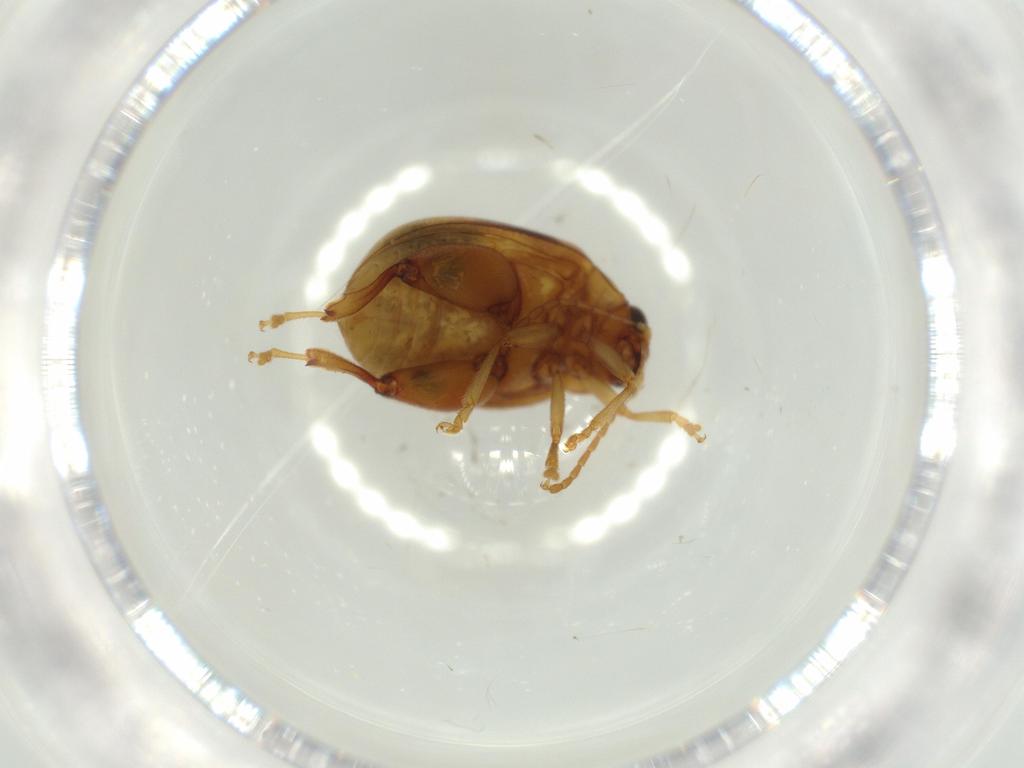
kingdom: Animalia
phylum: Arthropoda
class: Insecta
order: Coleoptera
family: Chrysomelidae
